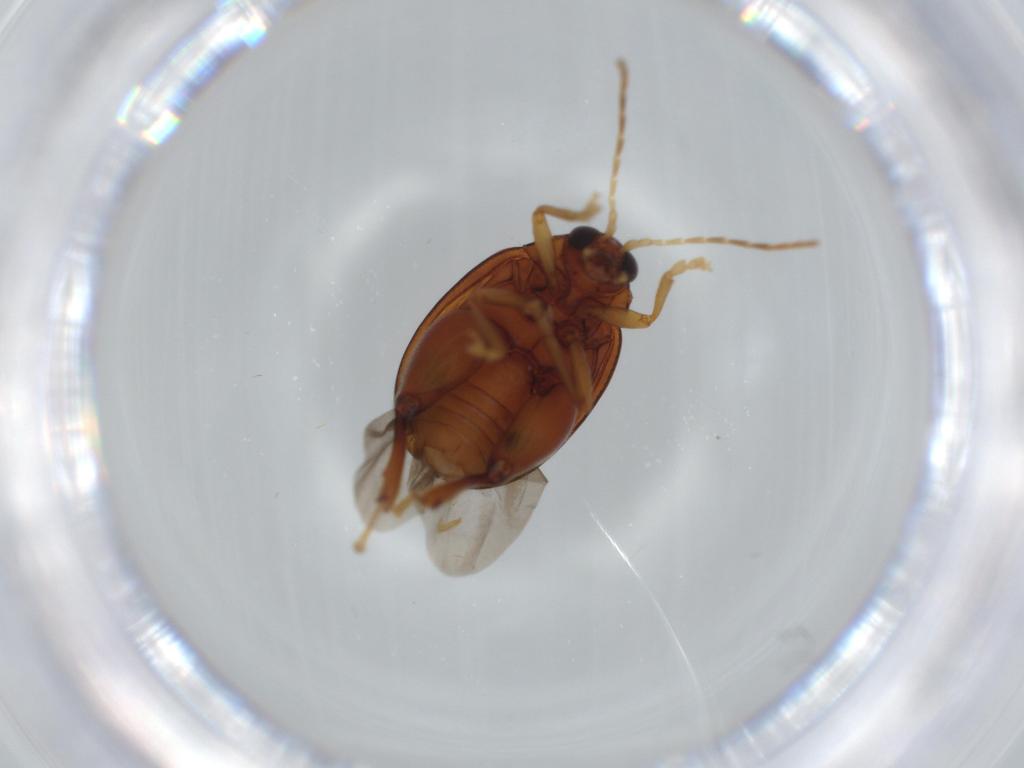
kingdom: Animalia
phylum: Arthropoda
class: Insecta
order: Coleoptera
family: Chrysomelidae
